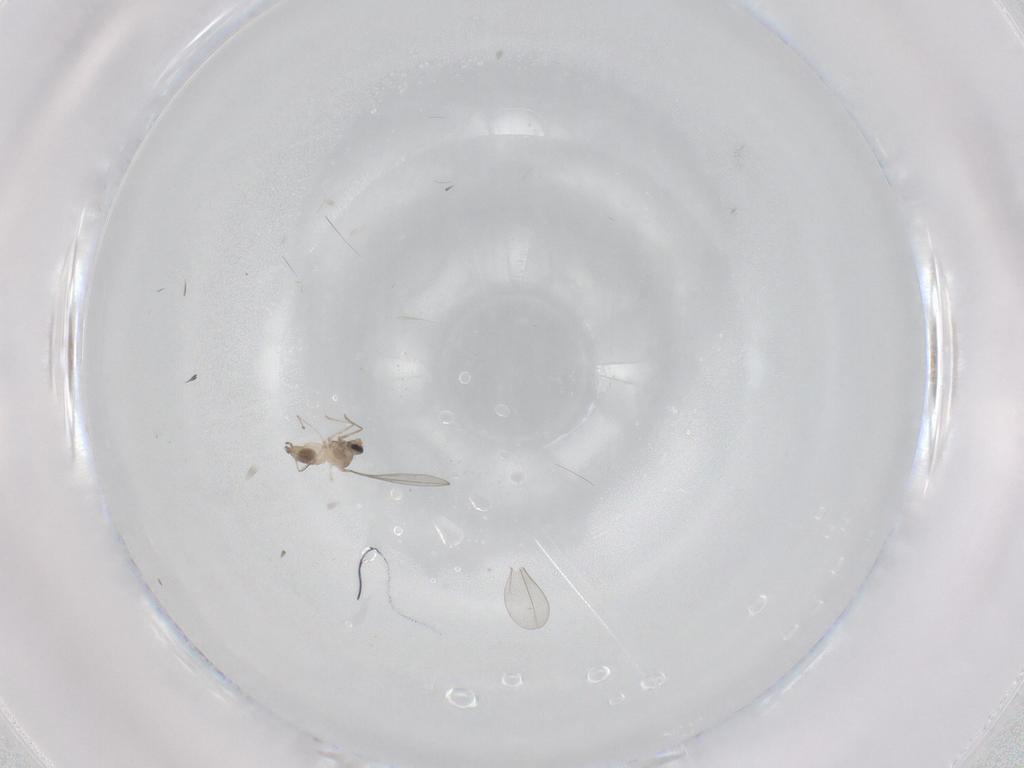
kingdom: Animalia
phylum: Arthropoda
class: Insecta
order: Diptera
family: Cecidomyiidae
